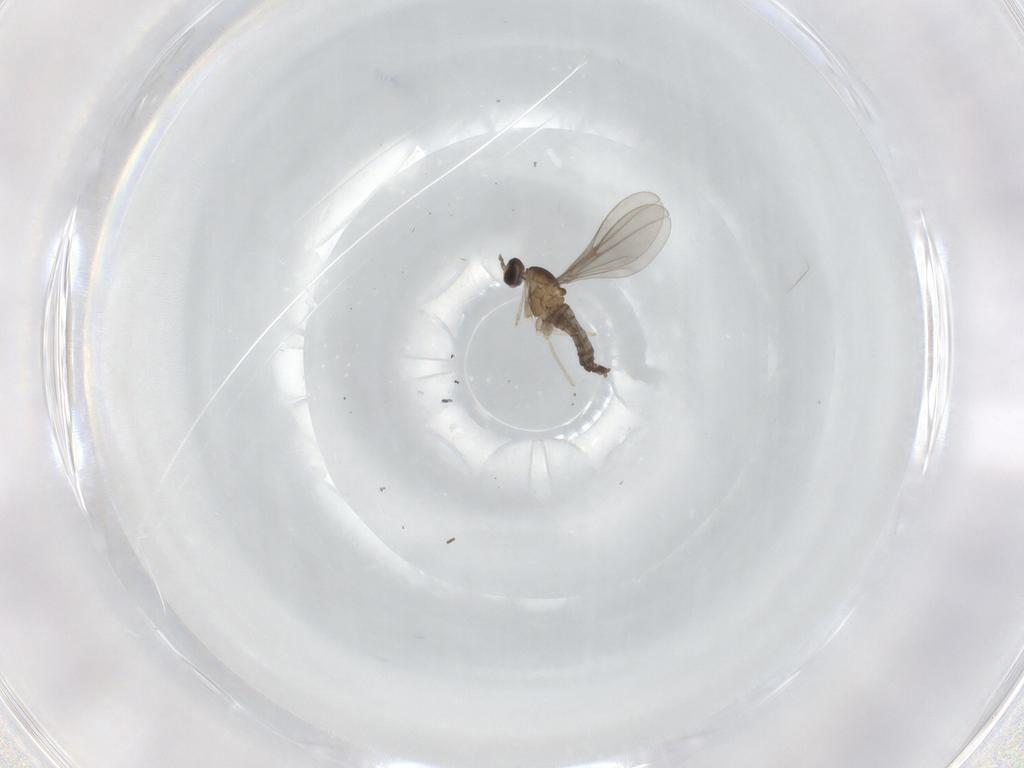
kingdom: Animalia
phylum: Arthropoda
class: Insecta
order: Diptera
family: Cecidomyiidae
